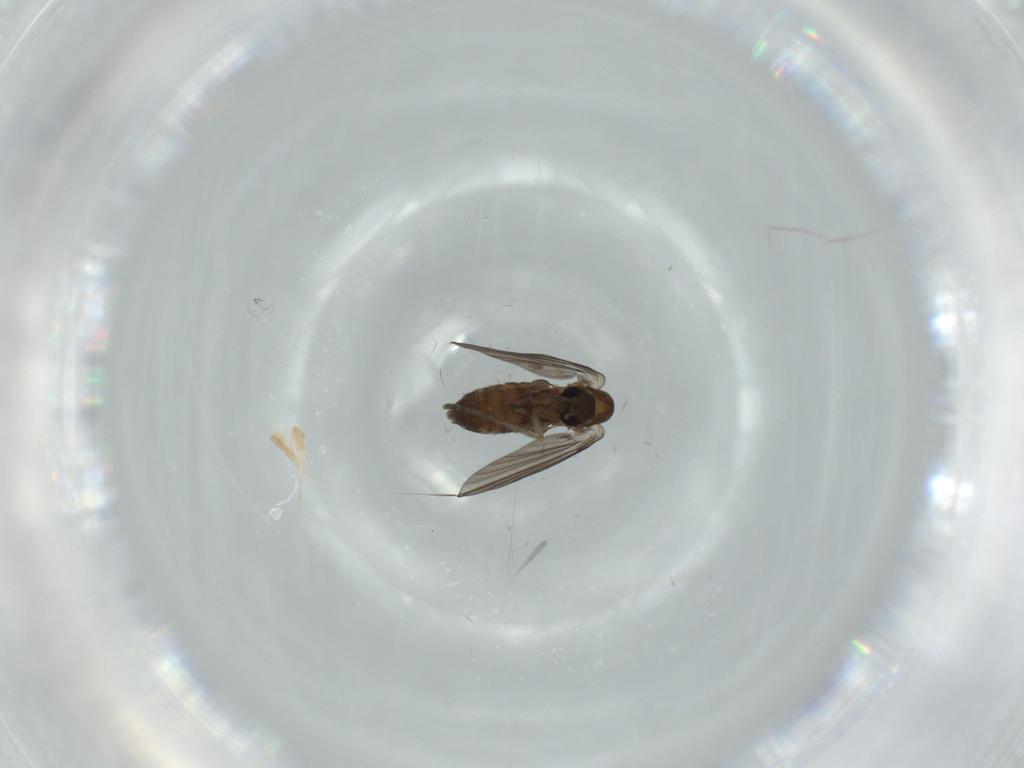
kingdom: Animalia
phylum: Arthropoda
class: Insecta
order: Diptera
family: Psychodidae
